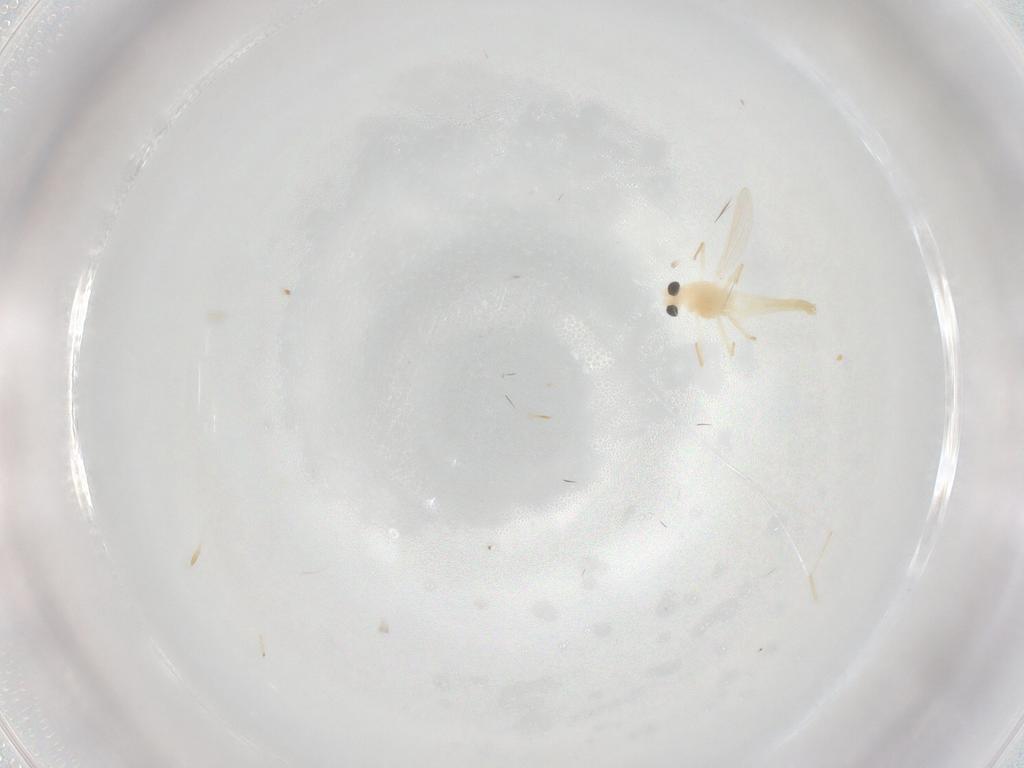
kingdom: Animalia
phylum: Arthropoda
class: Insecta
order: Diptera
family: Chironomidae
